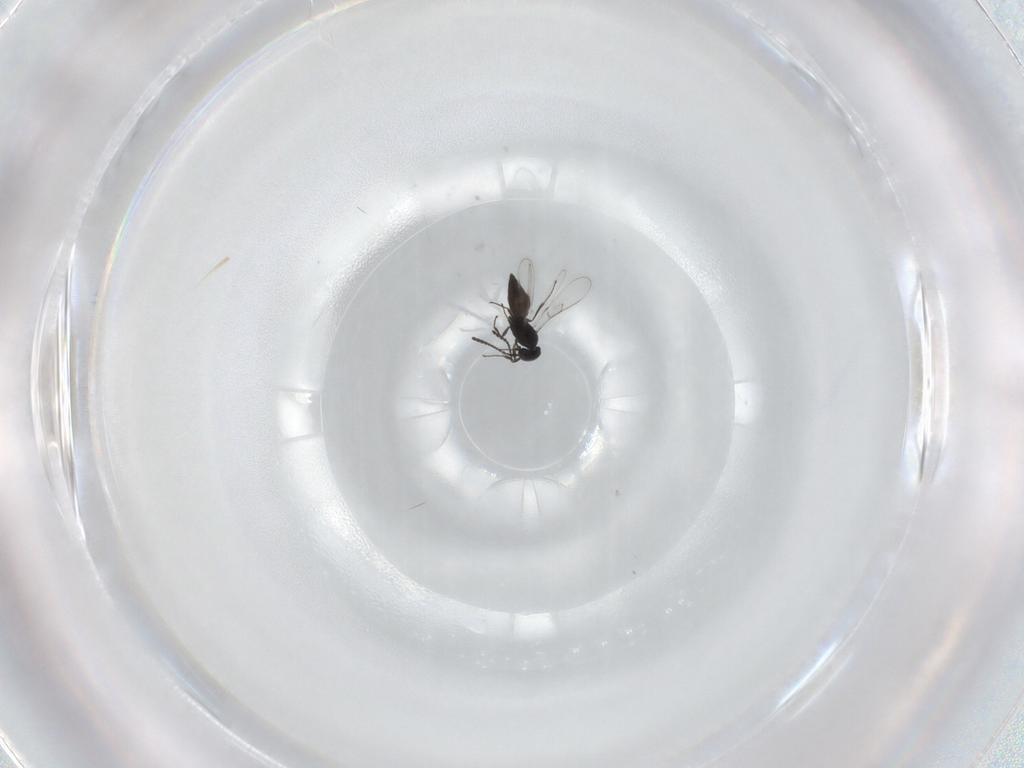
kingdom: Animalia
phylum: Arthropoda
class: Insecta
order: Hymenoptera
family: Scelionidae
